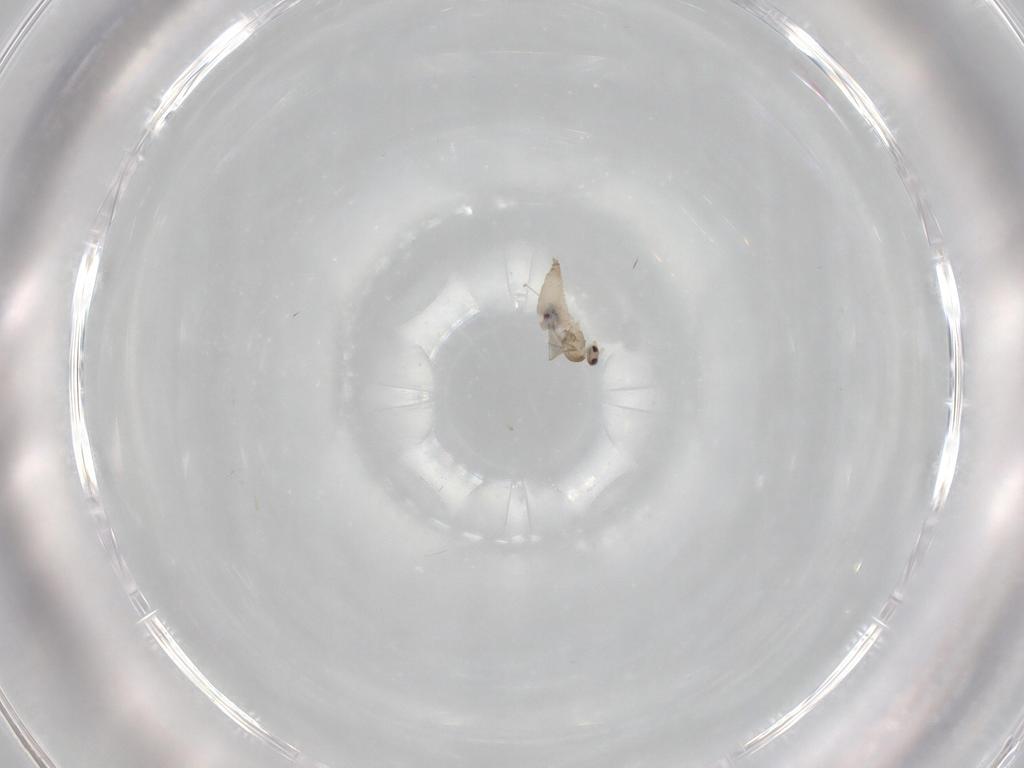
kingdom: Animalia
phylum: Arthropoda
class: Insecta
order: Diptera
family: Cecidomyiidae
